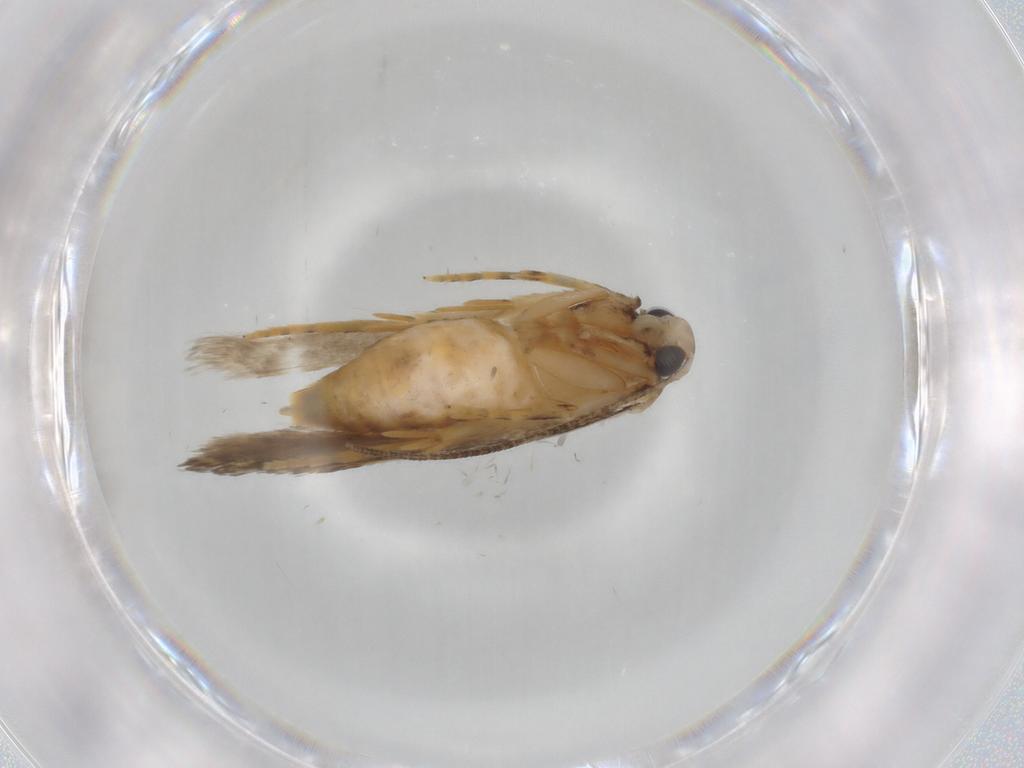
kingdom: Animalia
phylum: Arthropoda
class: Insecta
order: Lepidoptera
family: Autostichidae
